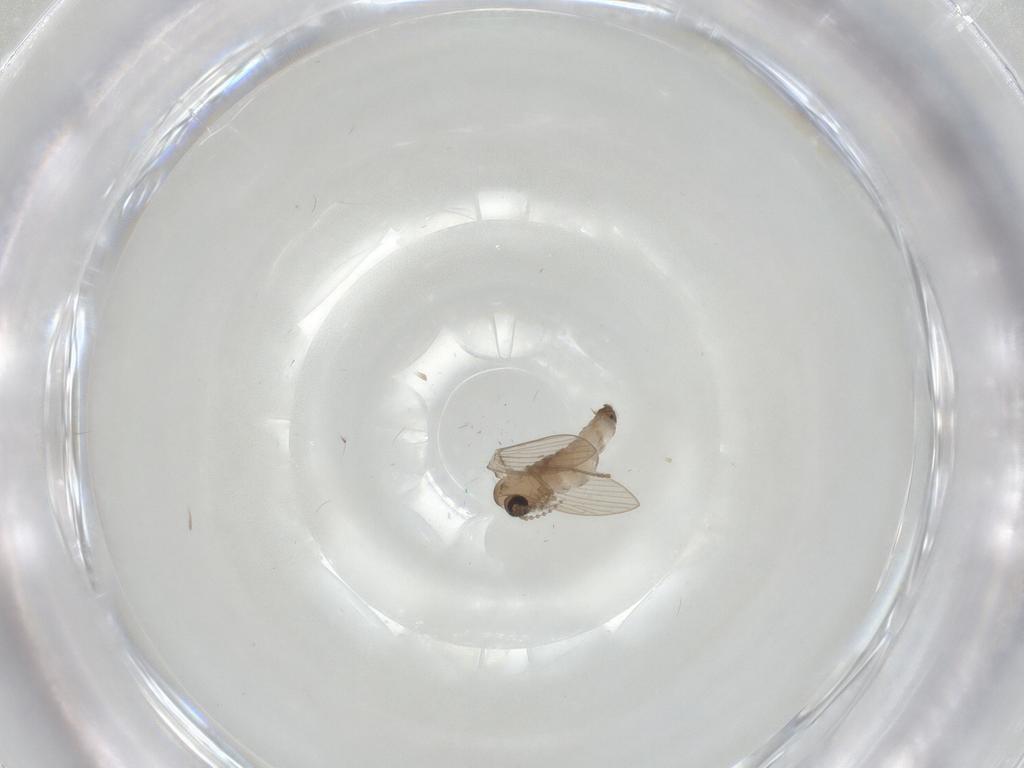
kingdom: Animalia
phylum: Arthropoda
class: Insecta
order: Diptera
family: Psychodidae
